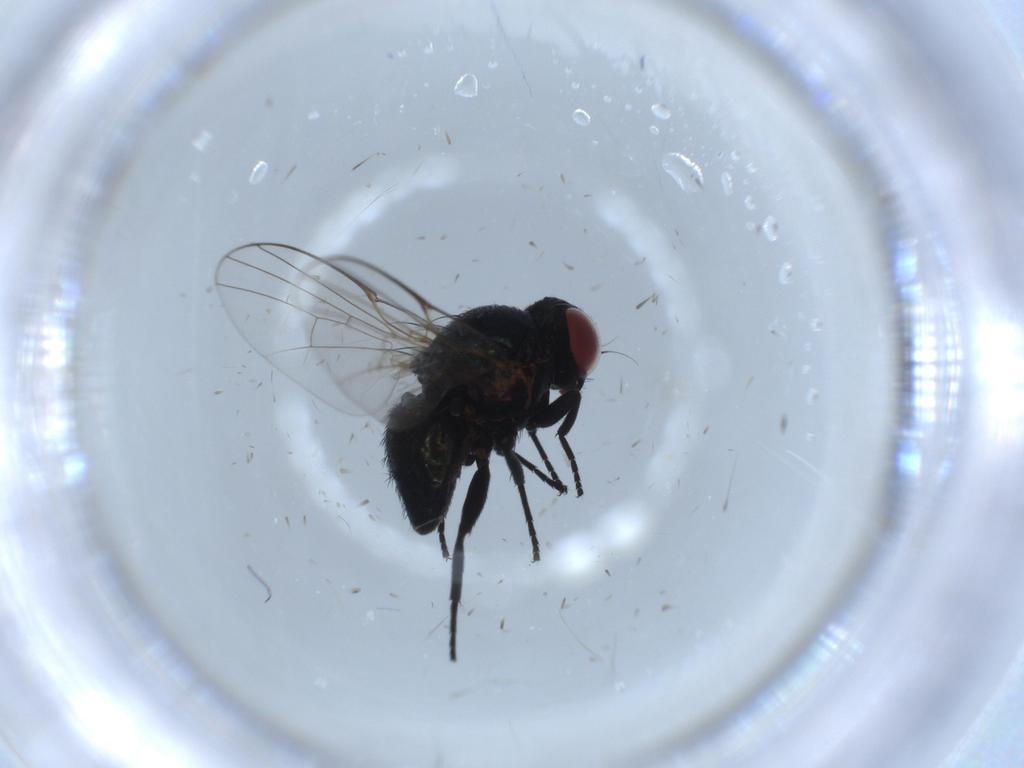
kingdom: Animalia
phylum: Arthropoda
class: Insecta
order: Diptera
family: Agromyzidae
